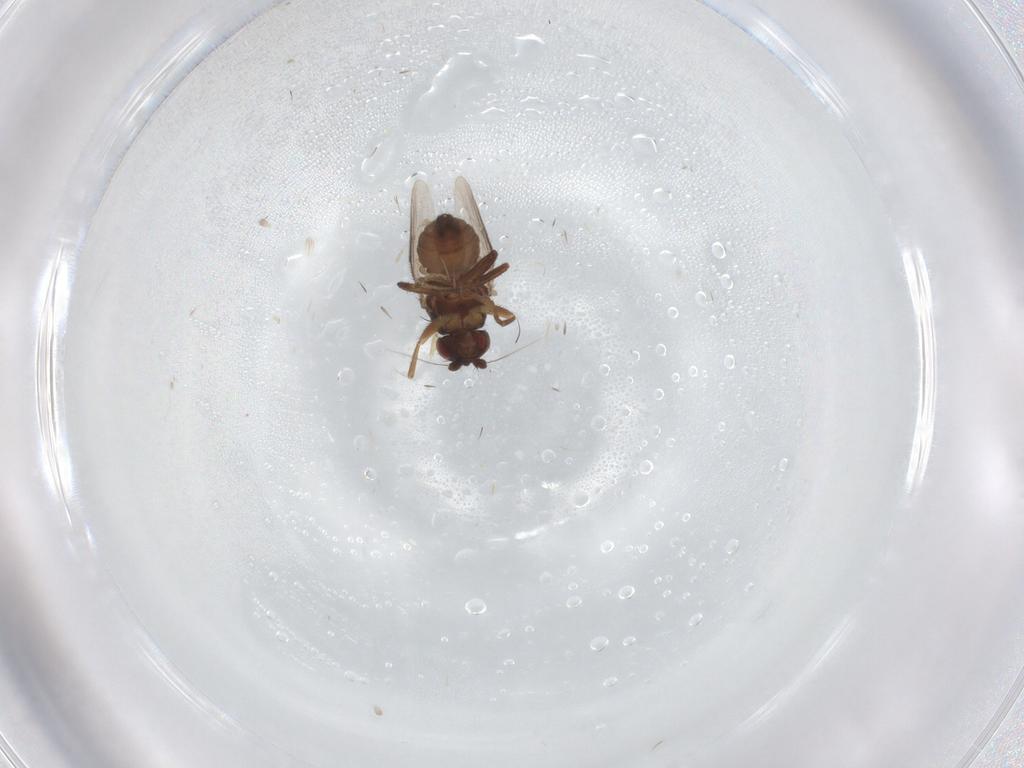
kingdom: Animalia
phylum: Arthropoda
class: Insecta
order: Diptera
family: Sphaeroceridae
